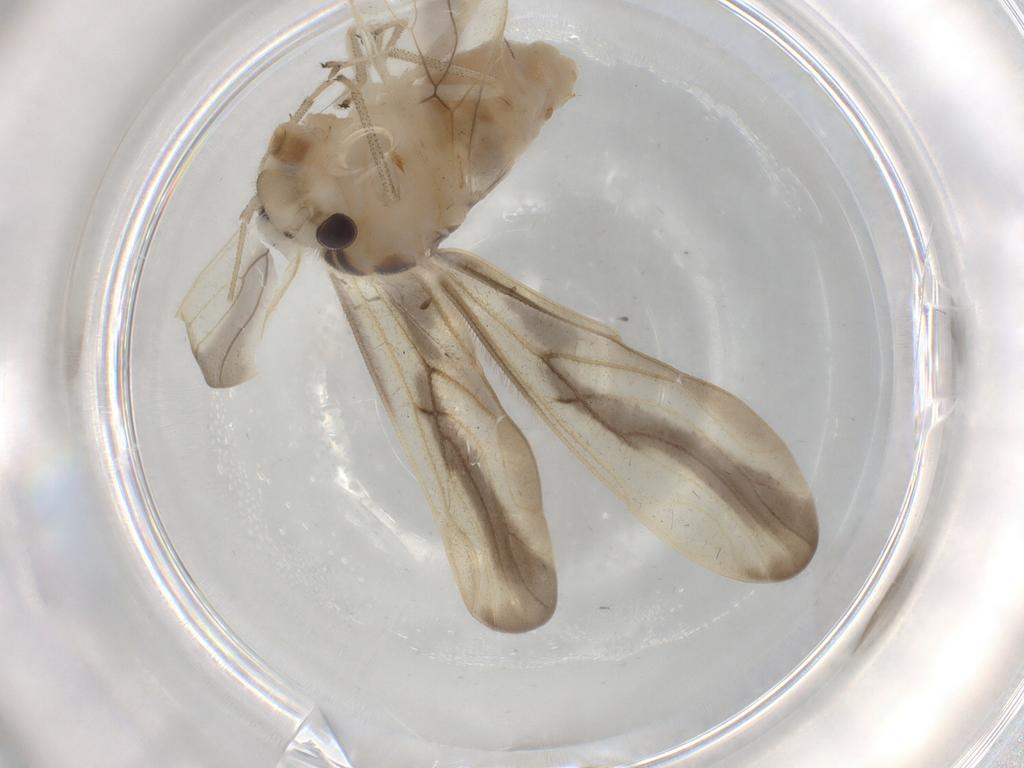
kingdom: Animalia
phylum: Arthropoda
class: Insecta
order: Psocodea
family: Amphipsocidae
